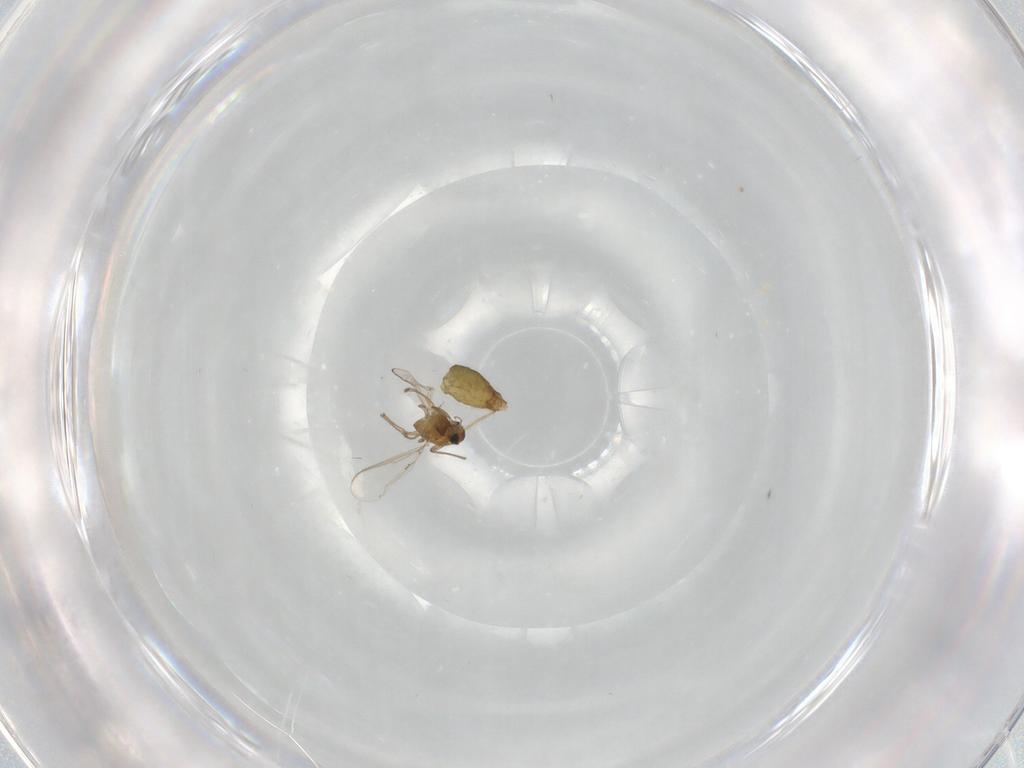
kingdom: Animalia
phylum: Arthropoda
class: Insecta
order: Diptera
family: Chironomidae
